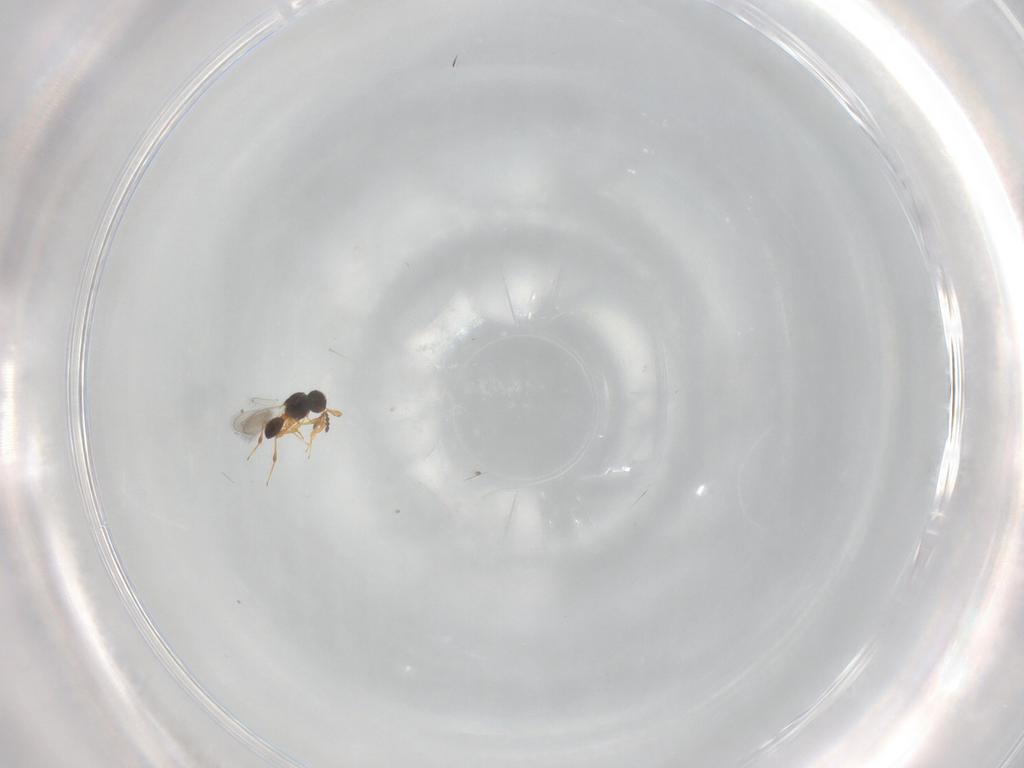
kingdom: Animalia
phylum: Arthropoda
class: Insecta
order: Hymenoptera
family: Platygastridae
